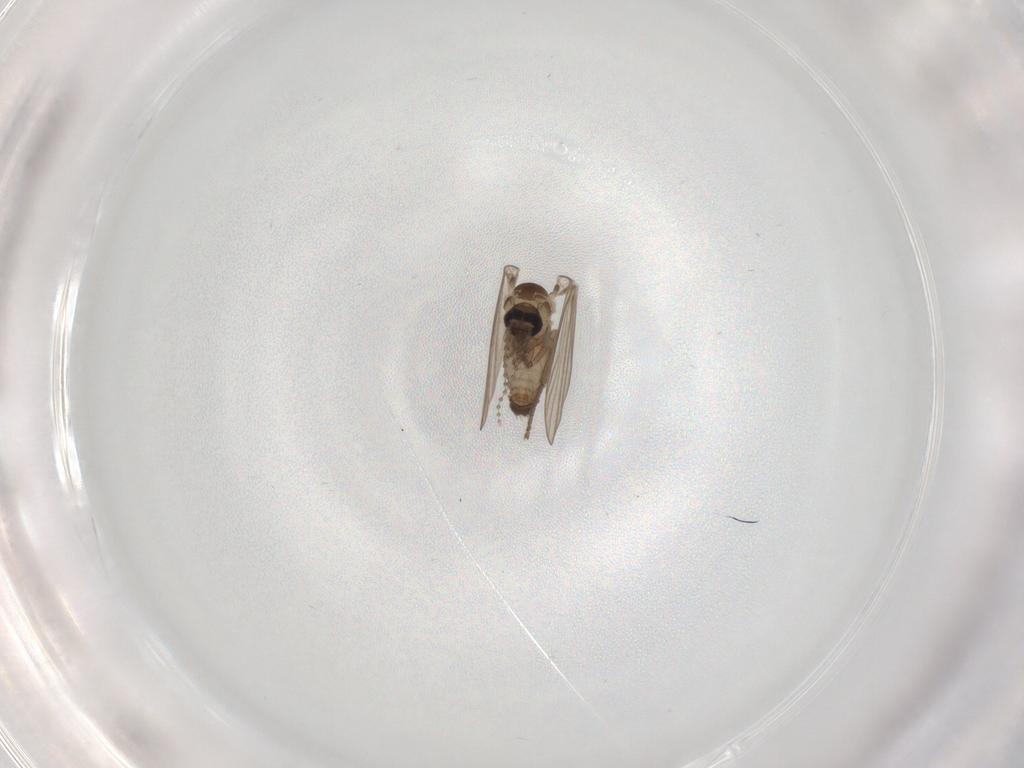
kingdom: Animalia
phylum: Arthropoda
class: Insecta
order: Diptera
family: Psychodidae
